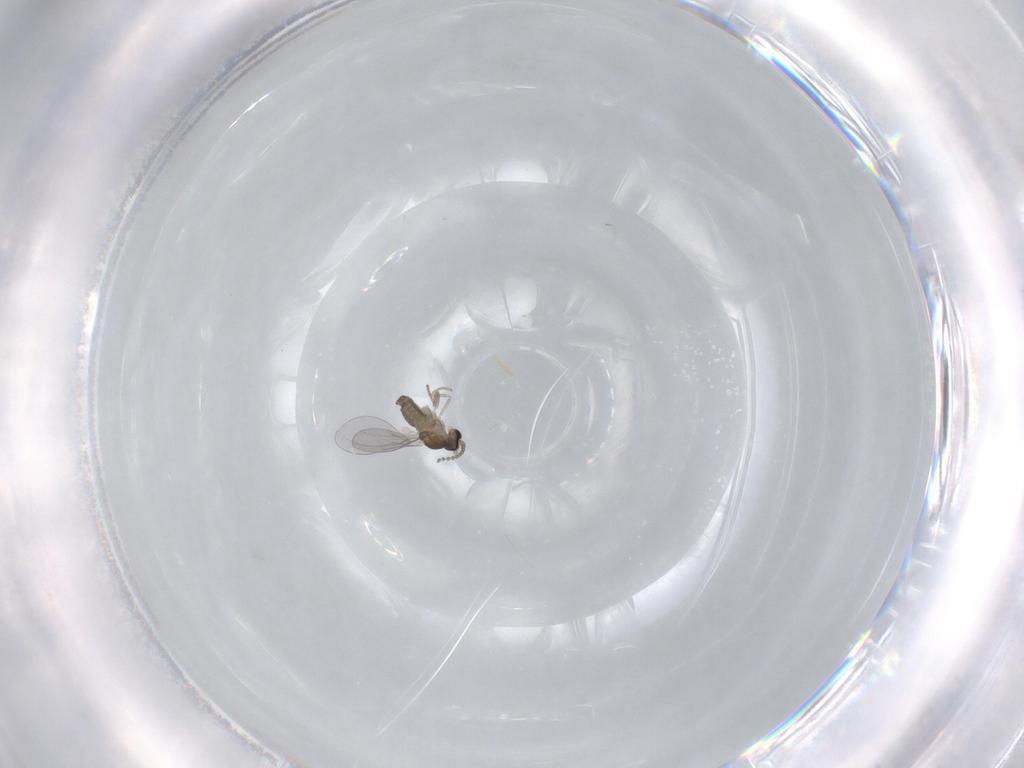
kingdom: Animalia
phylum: Arthropoda
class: Insecta
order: Diptera
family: Cecidomyiidae
